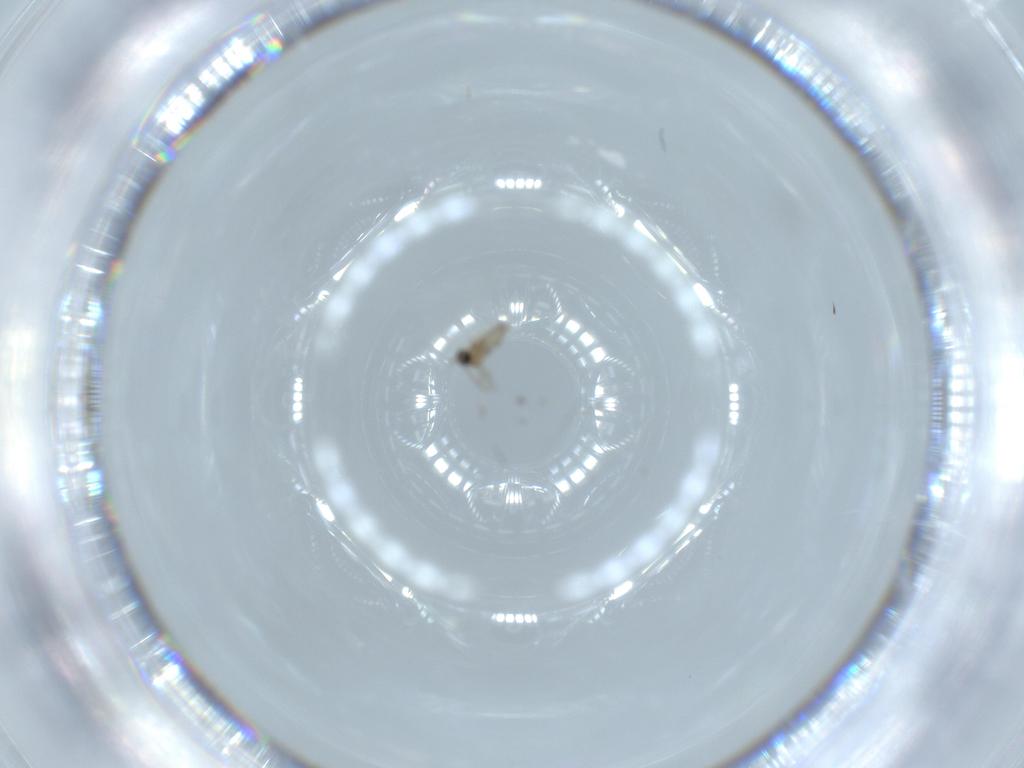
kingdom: Animalia
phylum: Arthropoda
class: Insecta
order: Diptera
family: Cecidomyiidae
